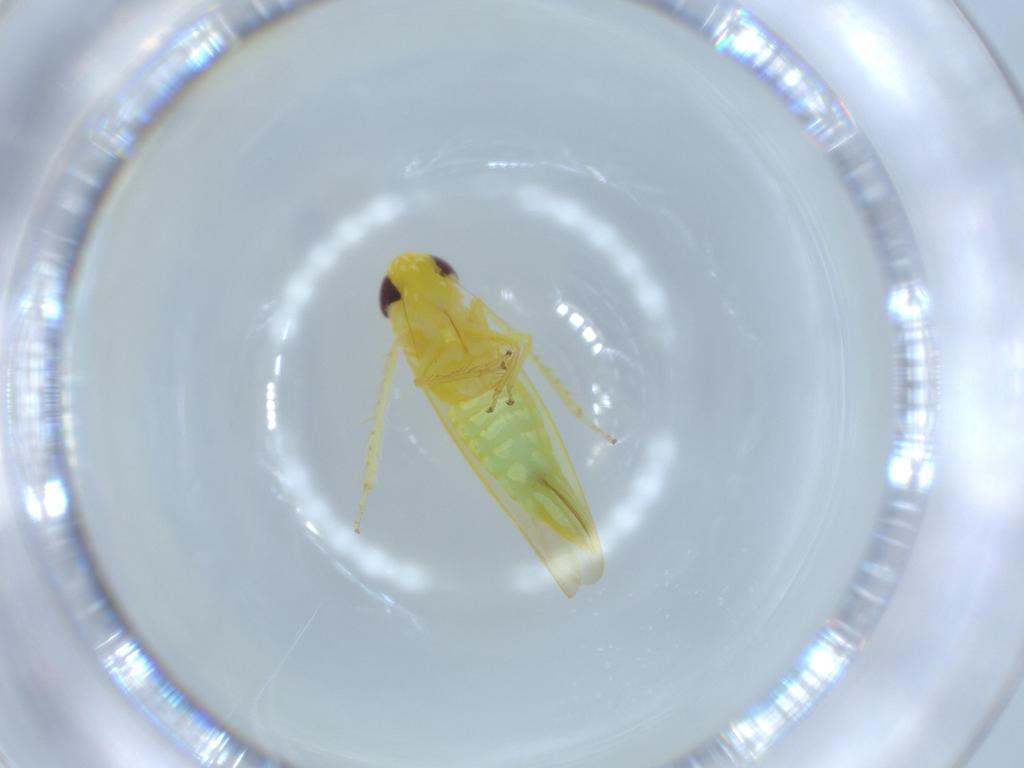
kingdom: Animalia
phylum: Arthropoda
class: Insecta
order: Hemiptera
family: Cicadellidae
